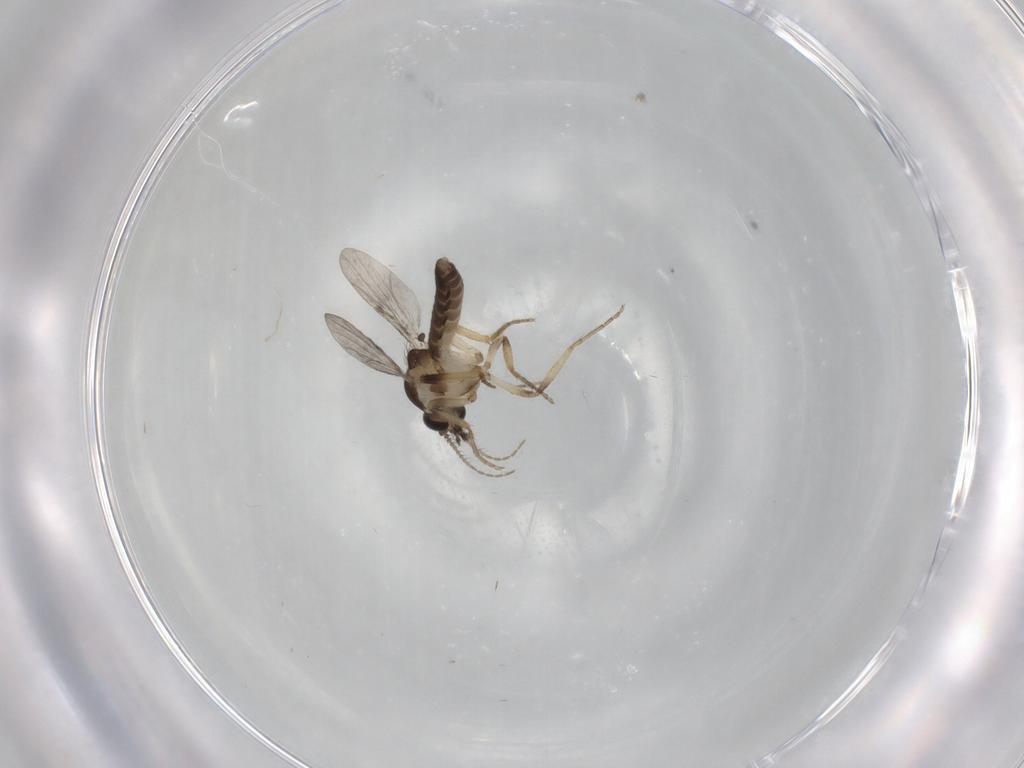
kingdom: Animalia
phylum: Arthropoda
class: Insecta
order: Diptera
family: Ceratopogonidae
